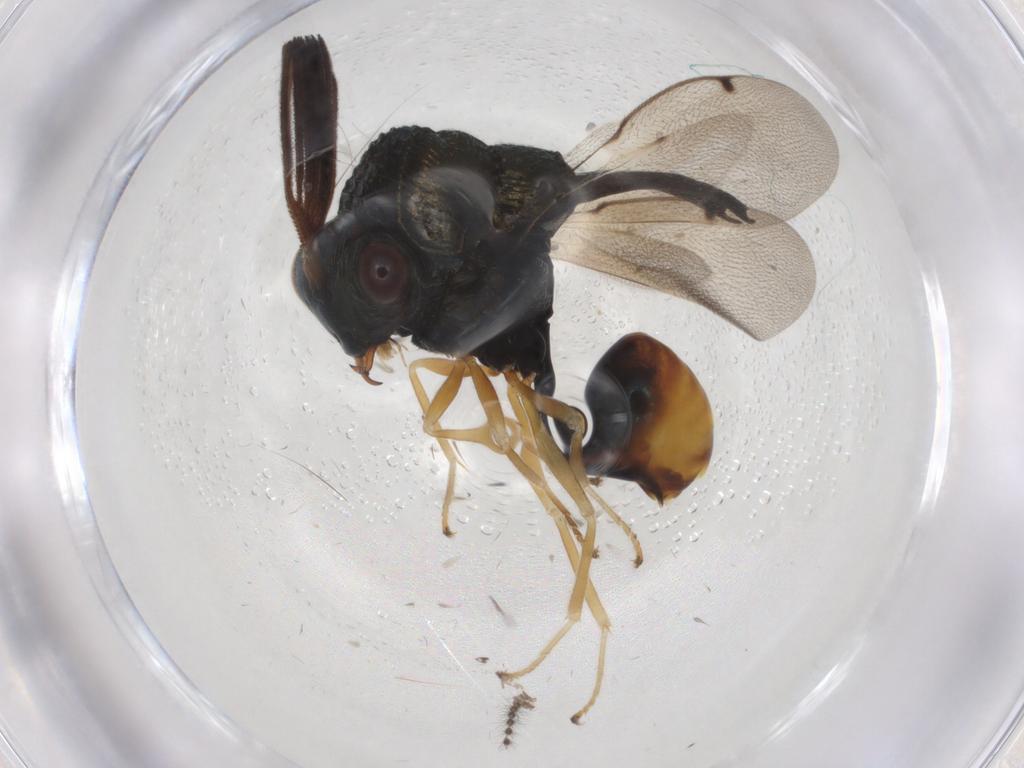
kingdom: Animalia
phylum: Arthropoda
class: Insecta
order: Hymenoptera
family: Eucharitidae
